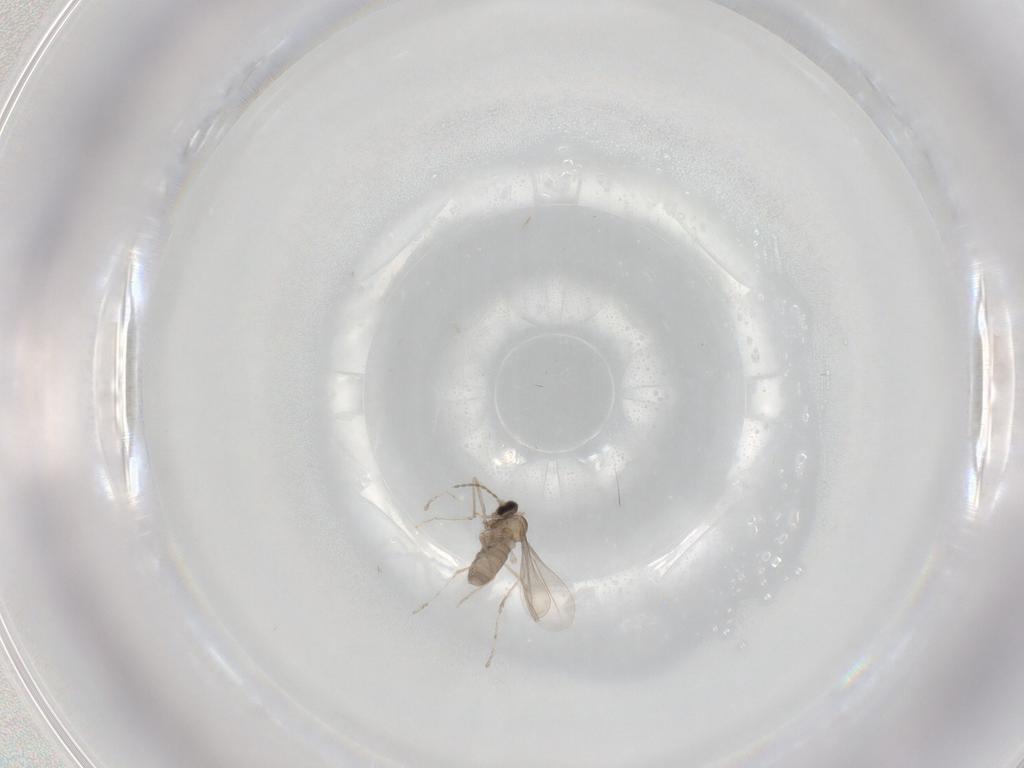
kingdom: Animalia
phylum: Arthropoda
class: Insecta
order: Diptera
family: Cecidomyiidae
